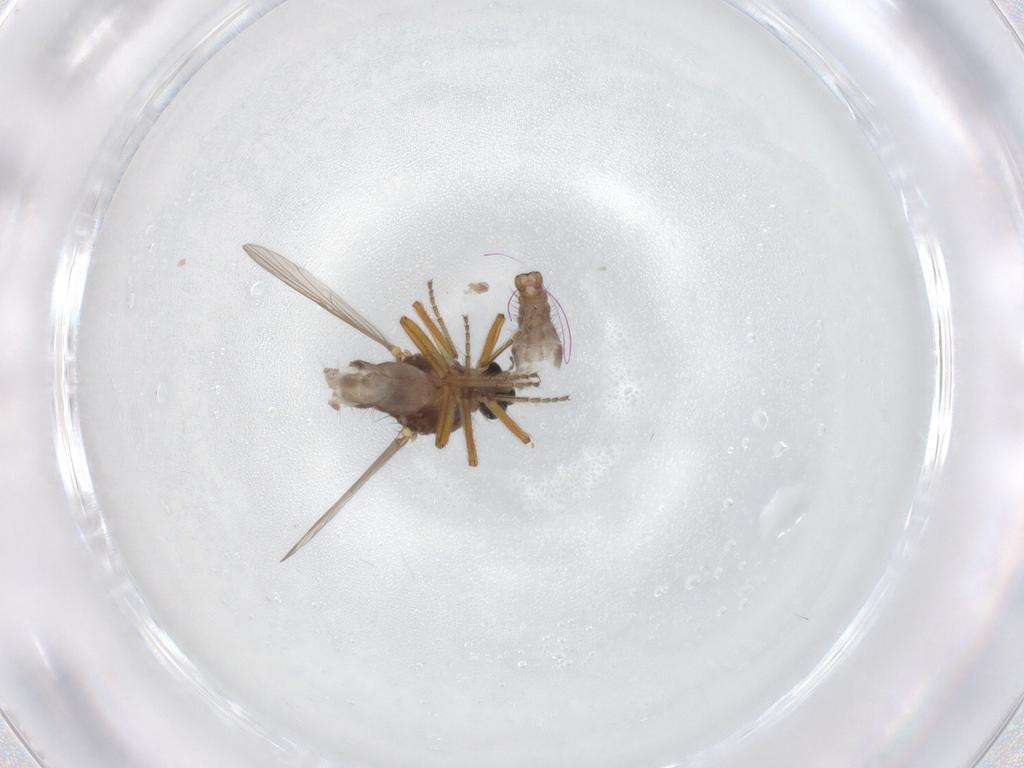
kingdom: Animalia
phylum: Arthropoda
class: Insecta
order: Diptera
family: Ceratopogonidae
